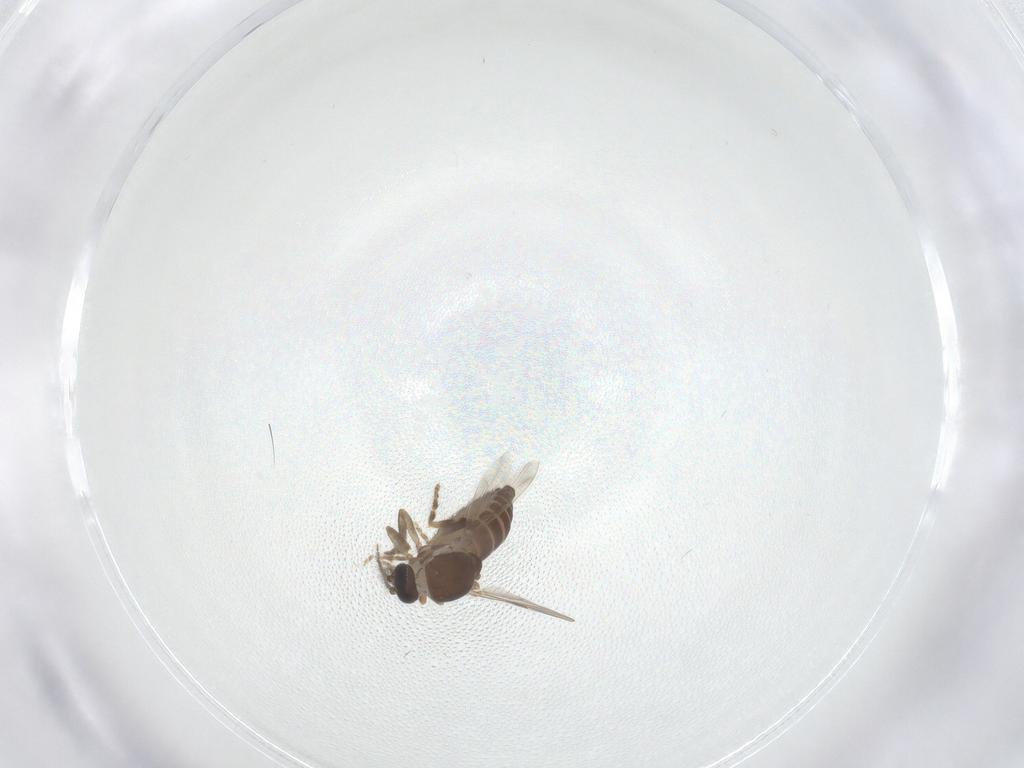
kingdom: Animalia
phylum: Arthropoda
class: Insecta
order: Diptera
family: Ceratopogonidae
